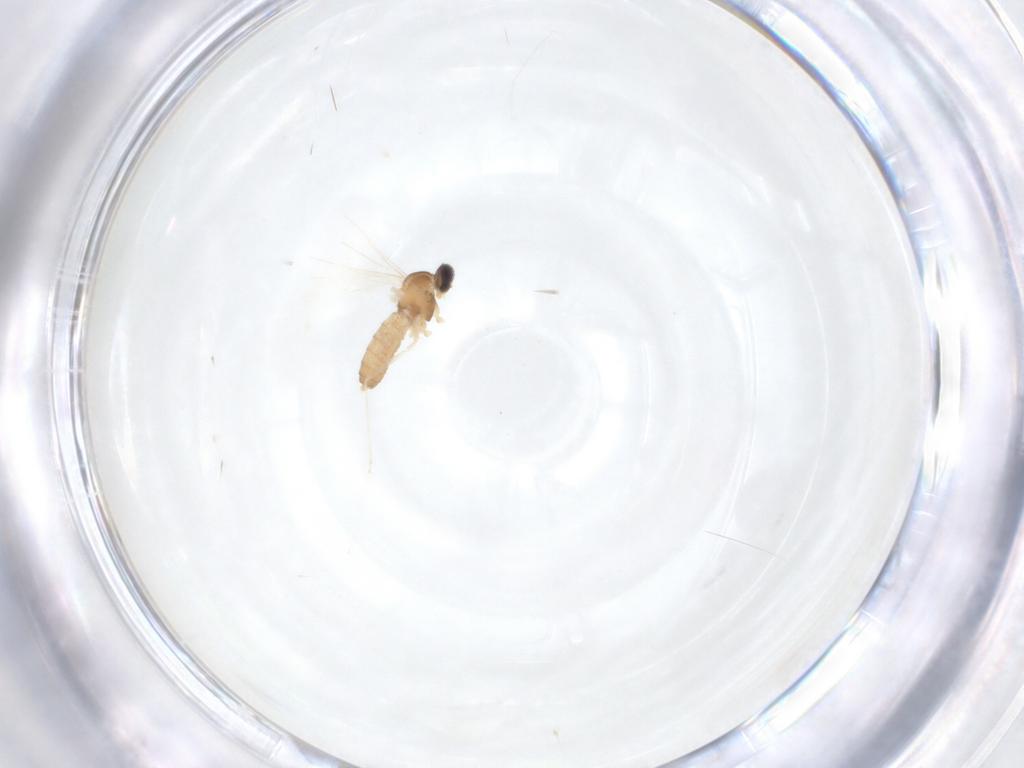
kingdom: Animalia
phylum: Arthropoda
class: Insecta
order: Diptera
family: Cecidomyiidae
